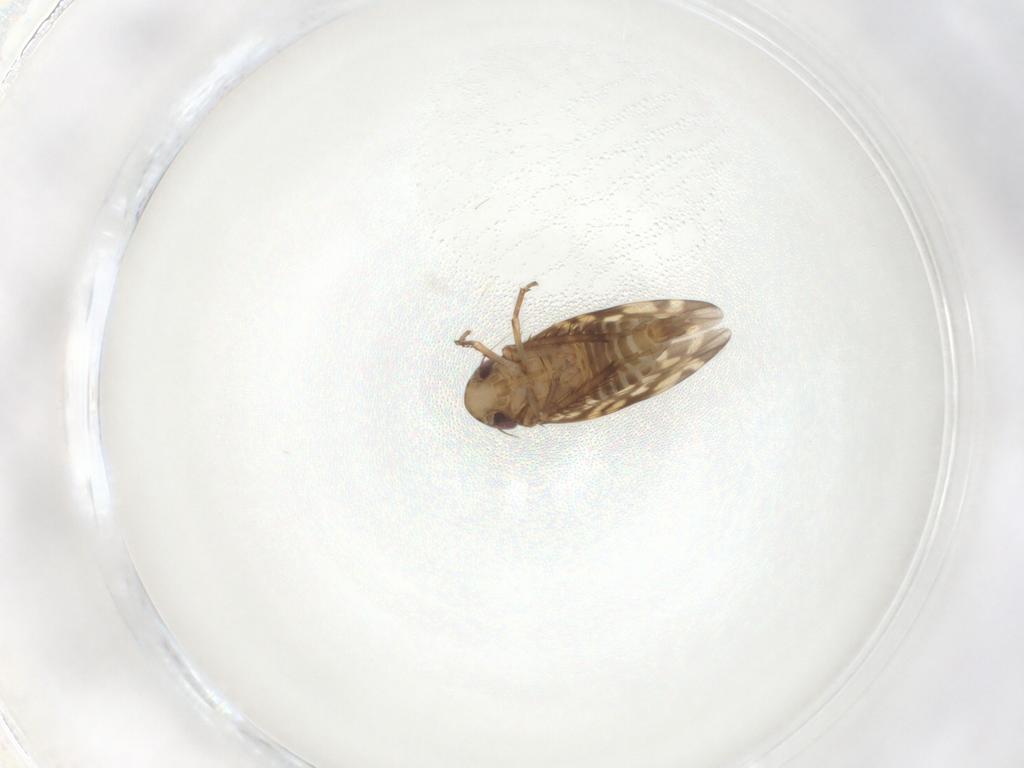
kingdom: Animalia
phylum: Arthropoda
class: Insecta
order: Hemiptera
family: Cicadellidae
